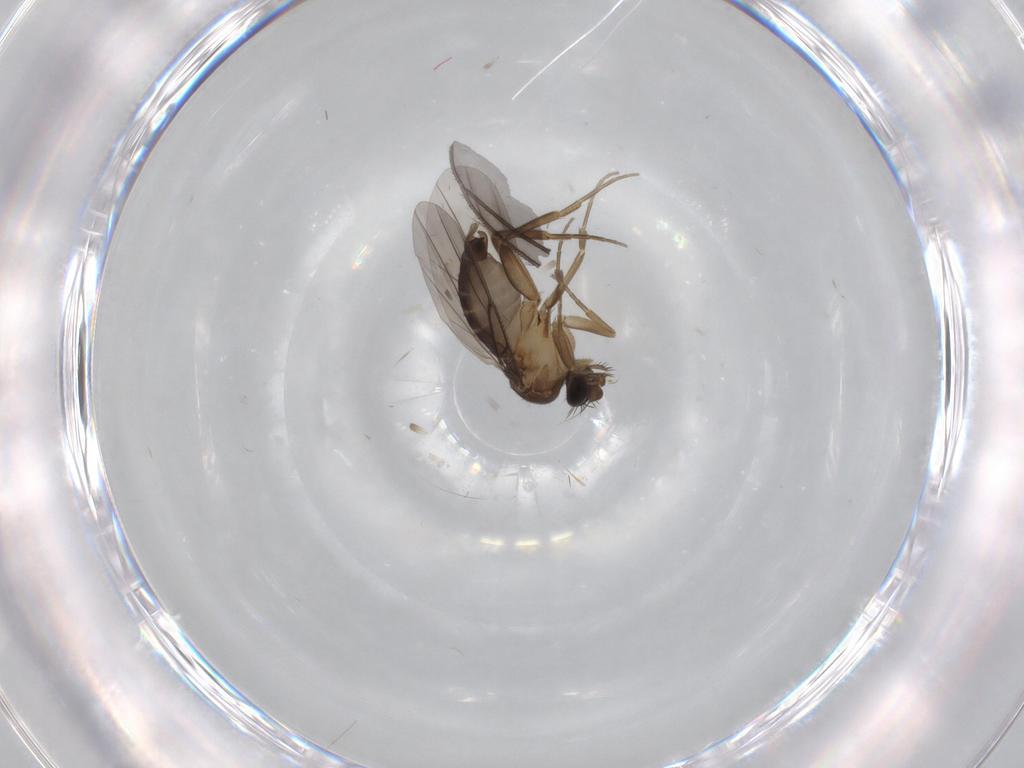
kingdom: Animalia
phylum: Arthropoda
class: Insecta
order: Diptera
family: Phoridae
